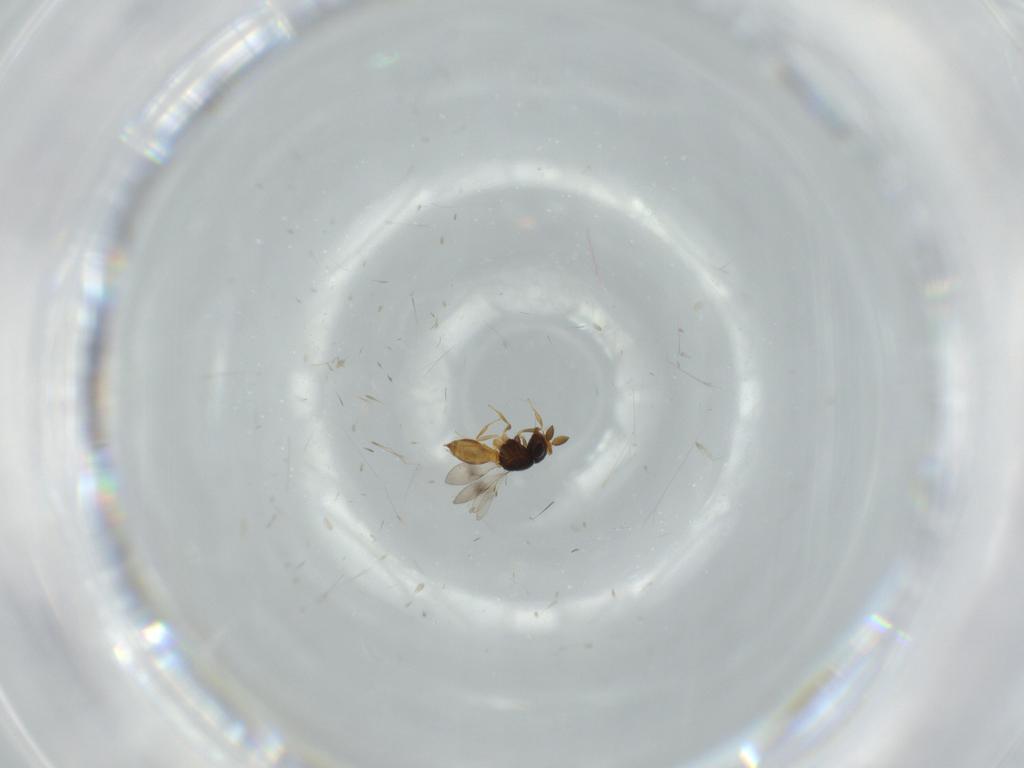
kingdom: Animalia
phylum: Arthropoda
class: Insecta
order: Hymenoptera
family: Scelionidae
